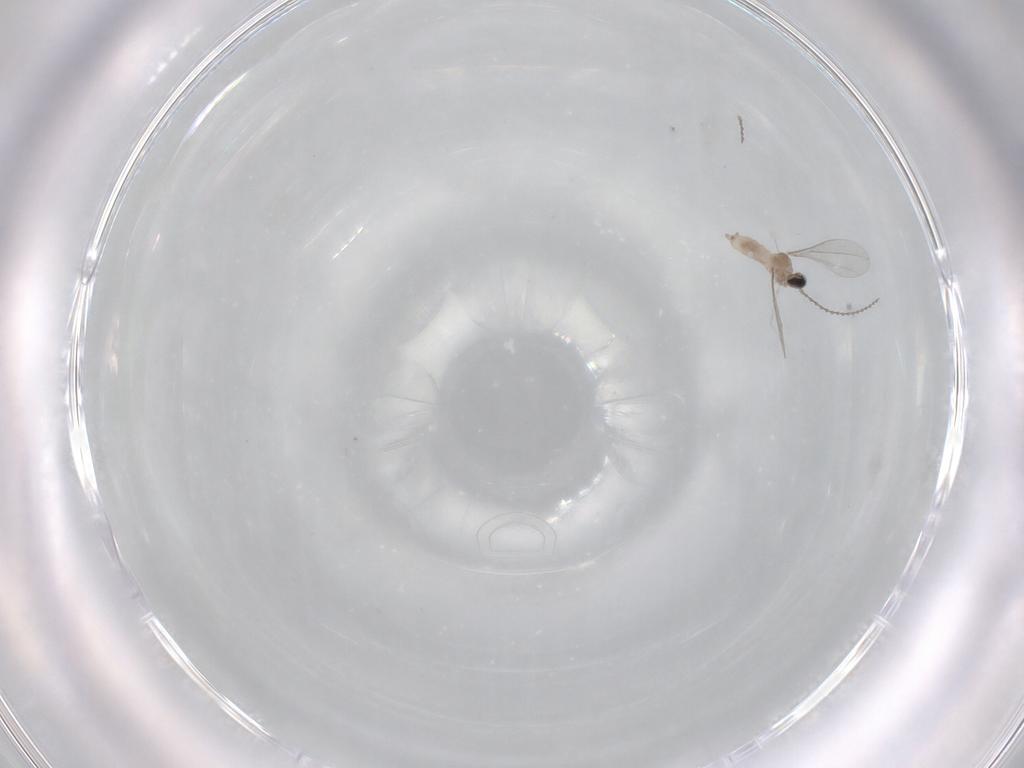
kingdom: Animalia
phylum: Arthropoda
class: Insecta
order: Diptera
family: Cecidomyiidae
